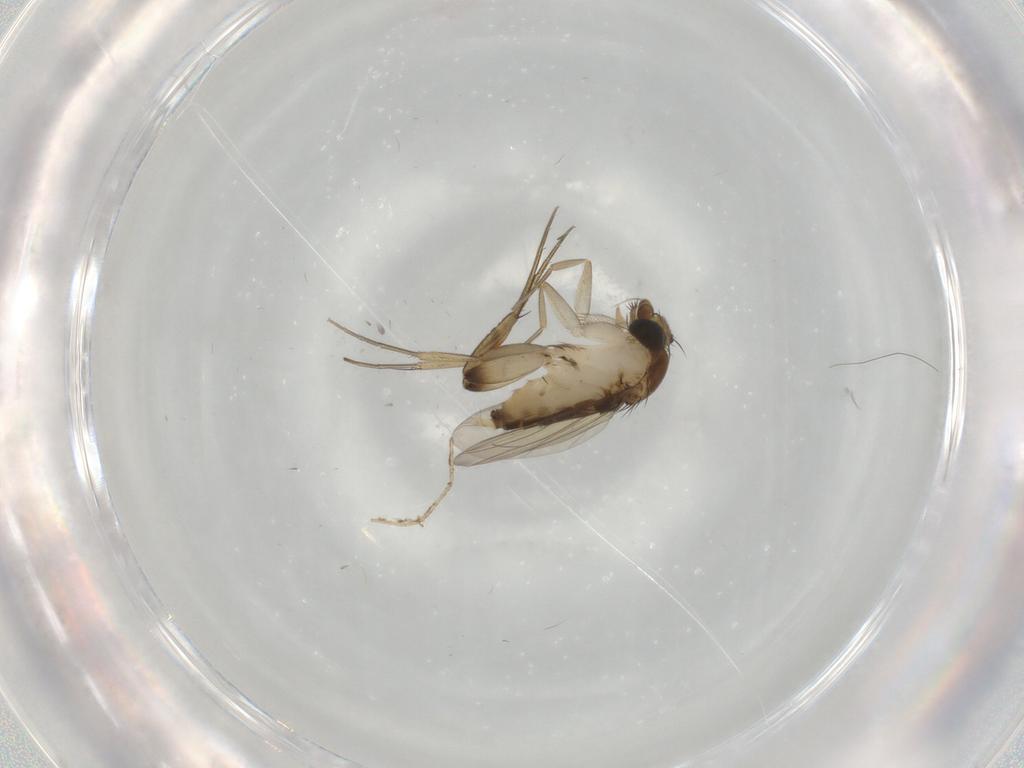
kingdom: Animalia
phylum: Arthropoda
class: Insecta
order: Diptera
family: Phoridae
